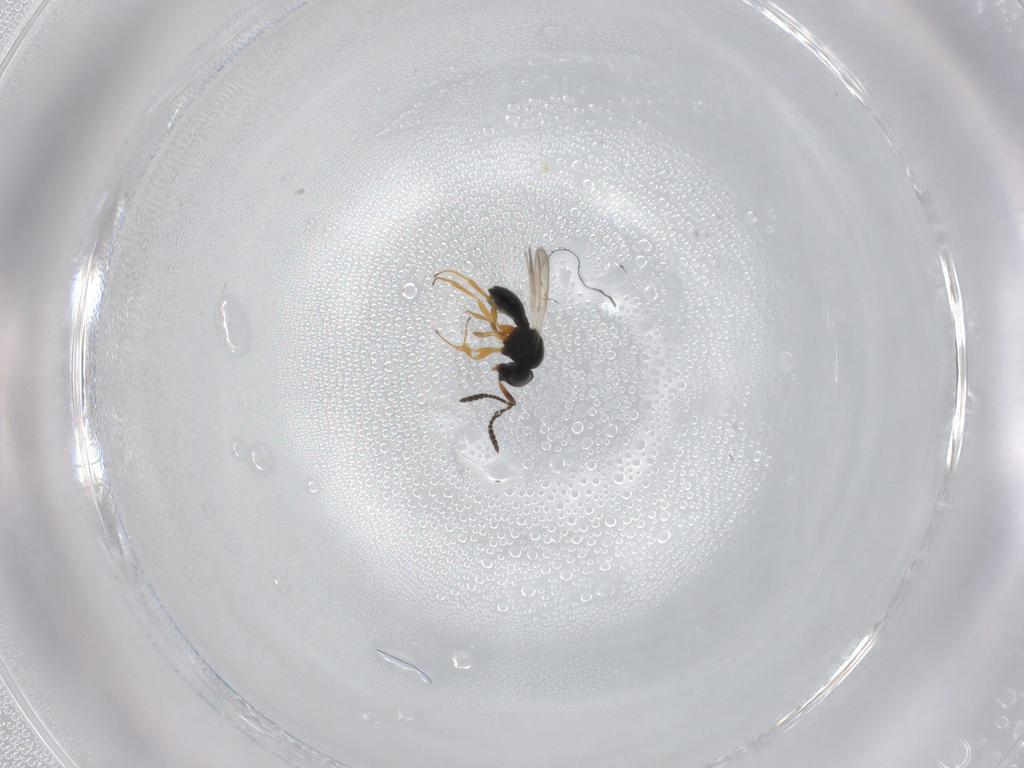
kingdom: Animalia
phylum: Arthropoda
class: Insecta
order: Hymenoptera
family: Scelionidae
